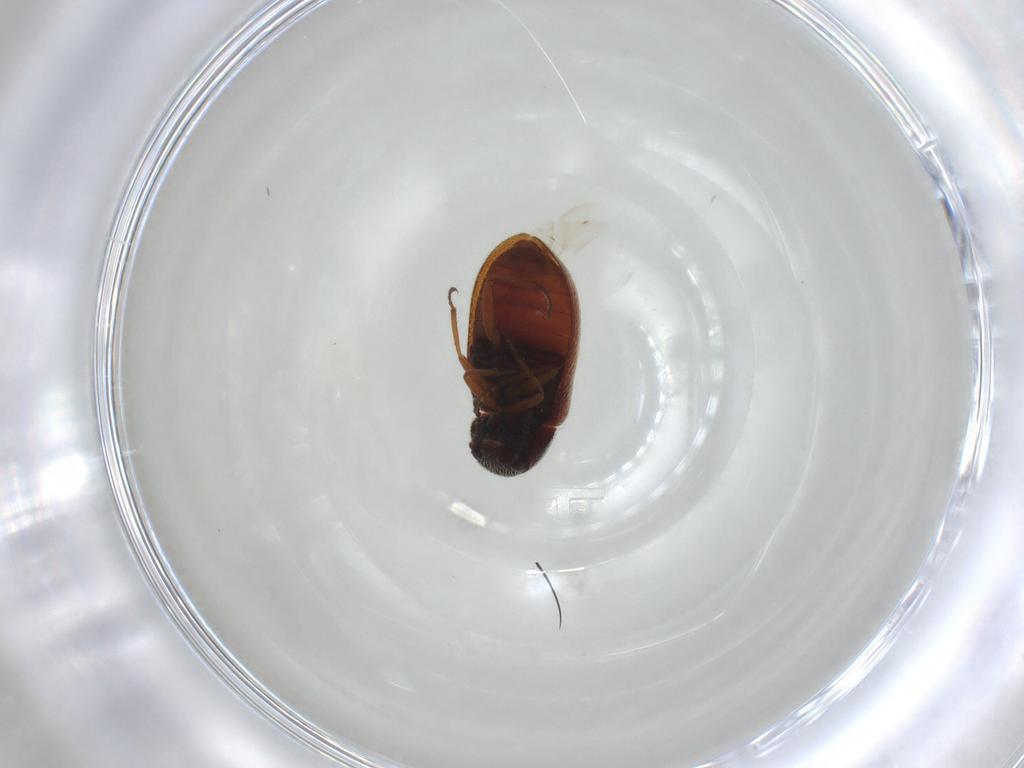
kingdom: Animalia
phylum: Arthropoda
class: Insecta
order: Coleoptera
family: Rhadalidae
